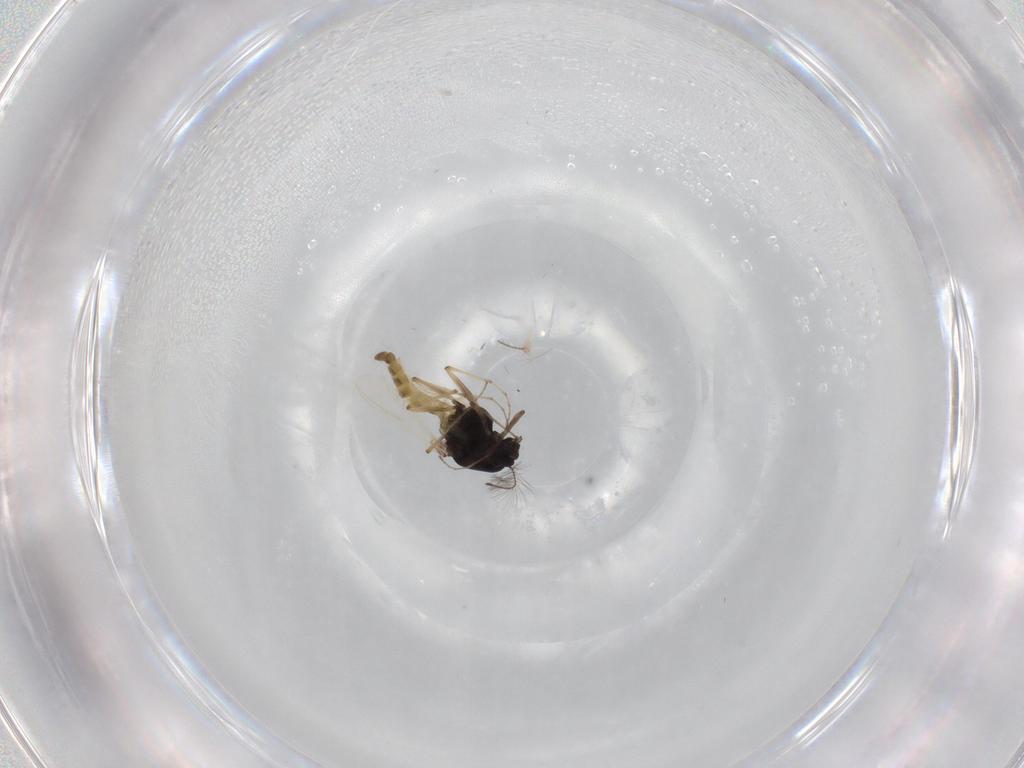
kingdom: Animalia
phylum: Arthropoda
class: Insecta
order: Diptera
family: Chironomidae
